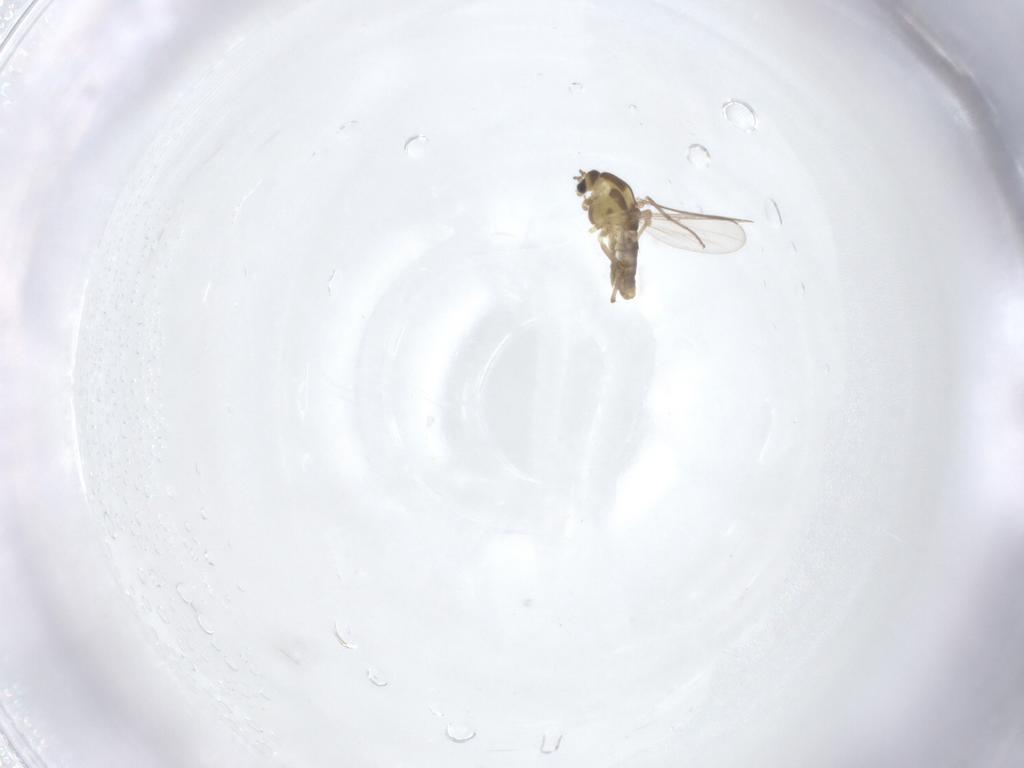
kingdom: Animalia
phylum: Arthropoda
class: Insecta
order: Diptera
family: Chironomidae
